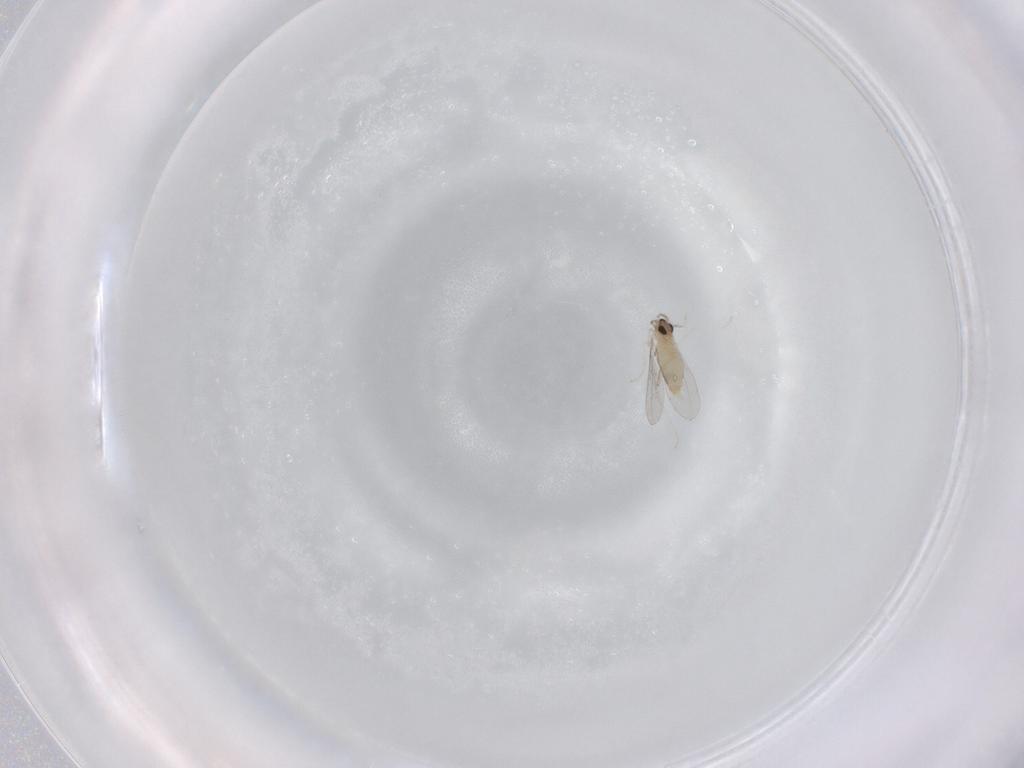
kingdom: Animalia
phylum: Arthropoda
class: Insecta
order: Diptera
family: Cecidomyiidae
